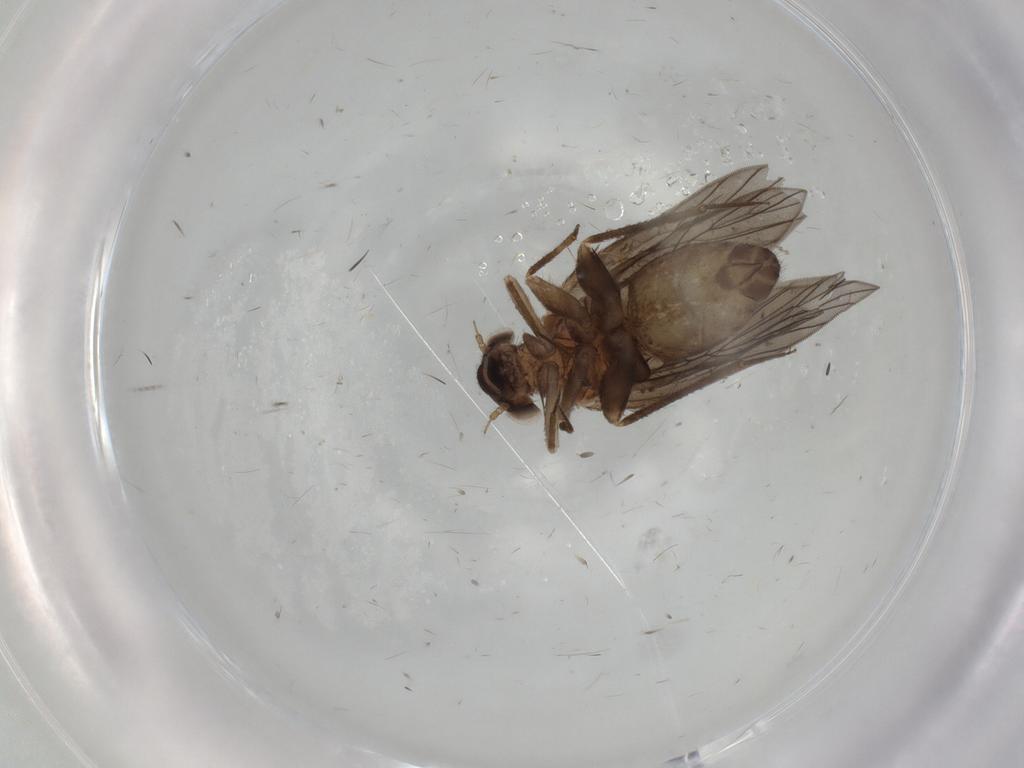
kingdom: Animalia
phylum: Arthropoda
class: Insecta
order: Psocodea
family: Lepidopsocidae
